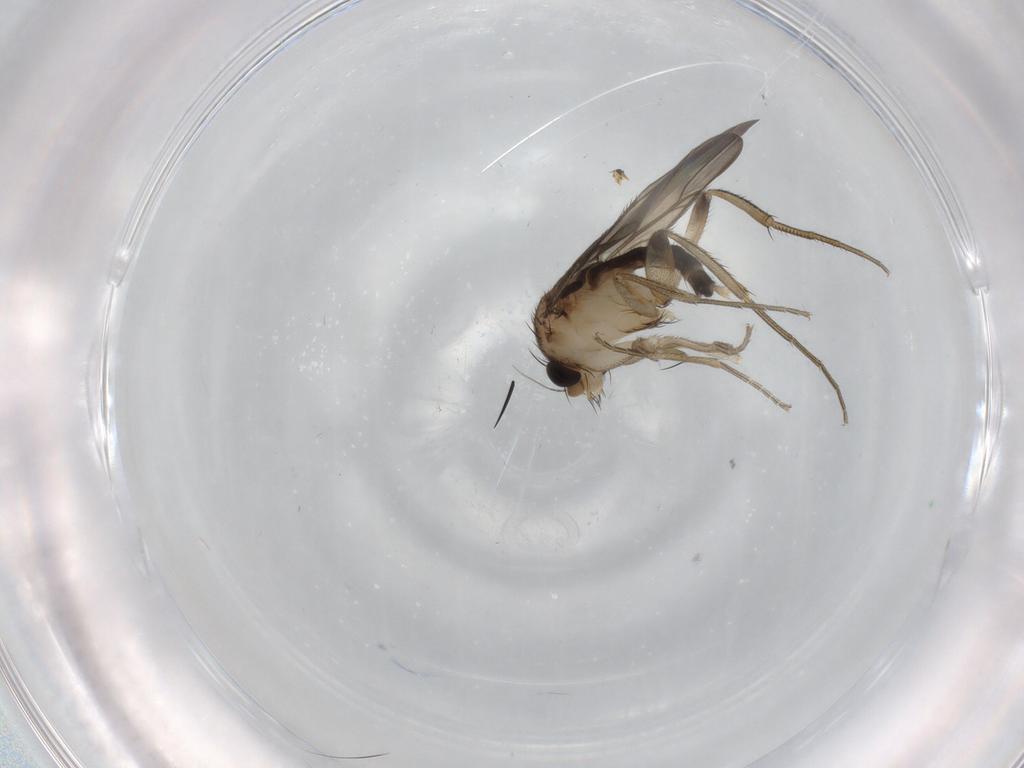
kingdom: Animalia
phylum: Arthropoda
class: Insecta
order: Diptera
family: Phoridae
